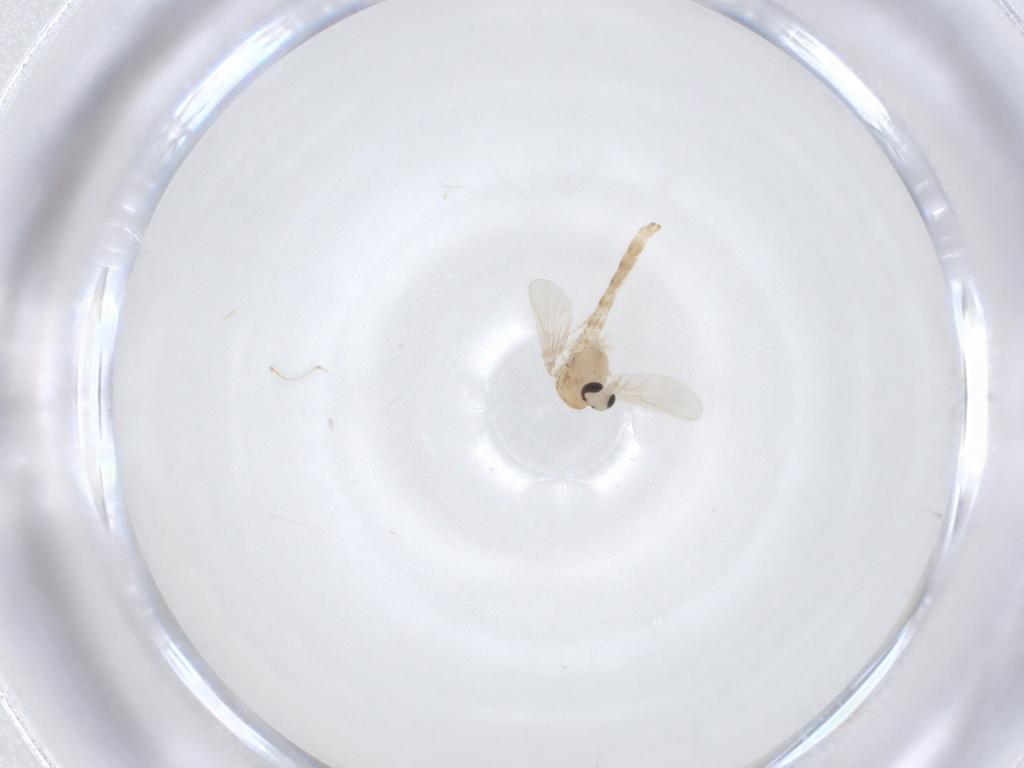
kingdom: Animalia
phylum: Arthropoda
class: Insecta
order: Diptera
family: Chironomidae
